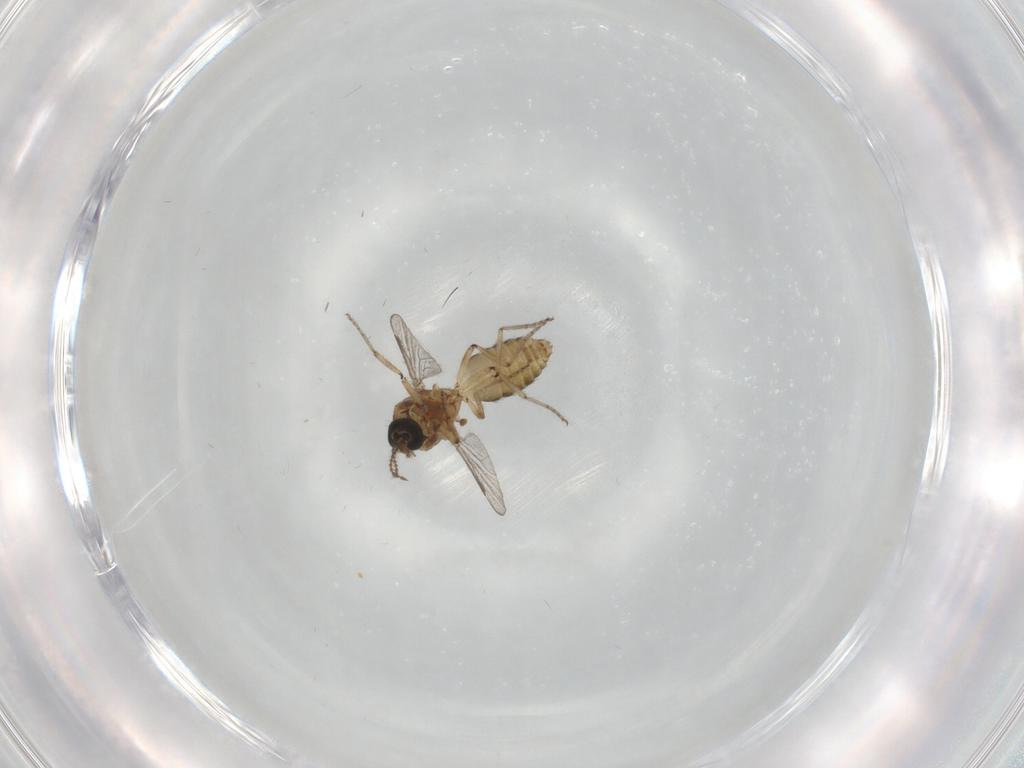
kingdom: Animalia
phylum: Arthropoda
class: Insecta
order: Diptera
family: Ceratopogonidae
